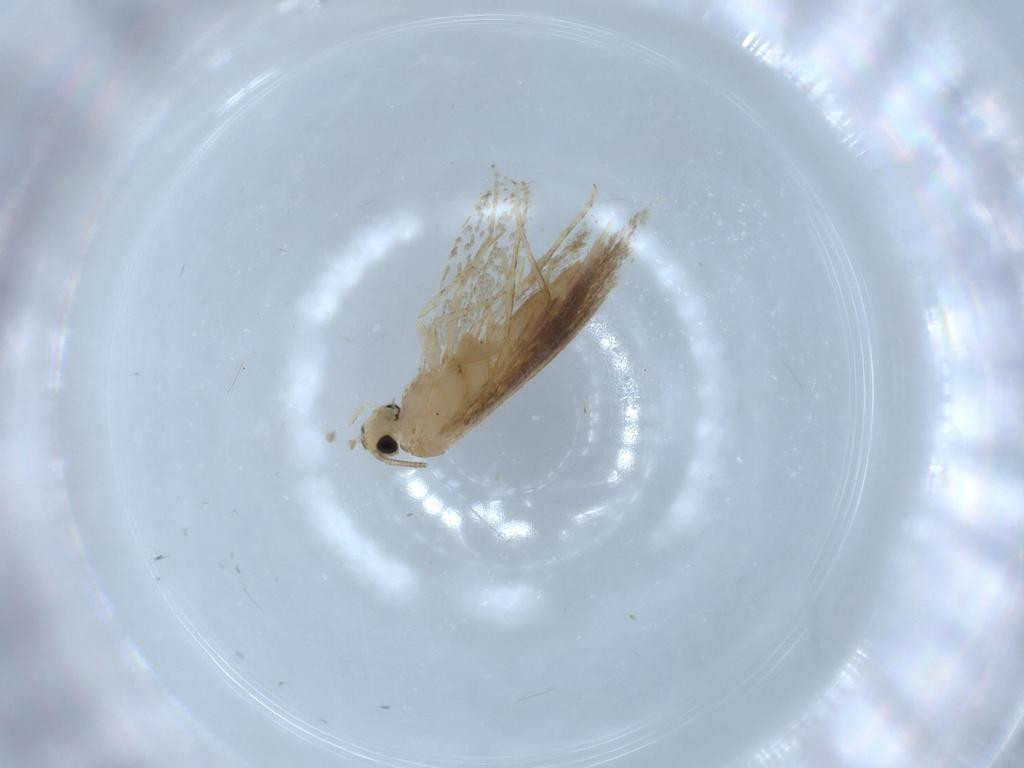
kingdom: Animalia
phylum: Arthropoda
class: Insecta
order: Lepidoptera
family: Tineidae
